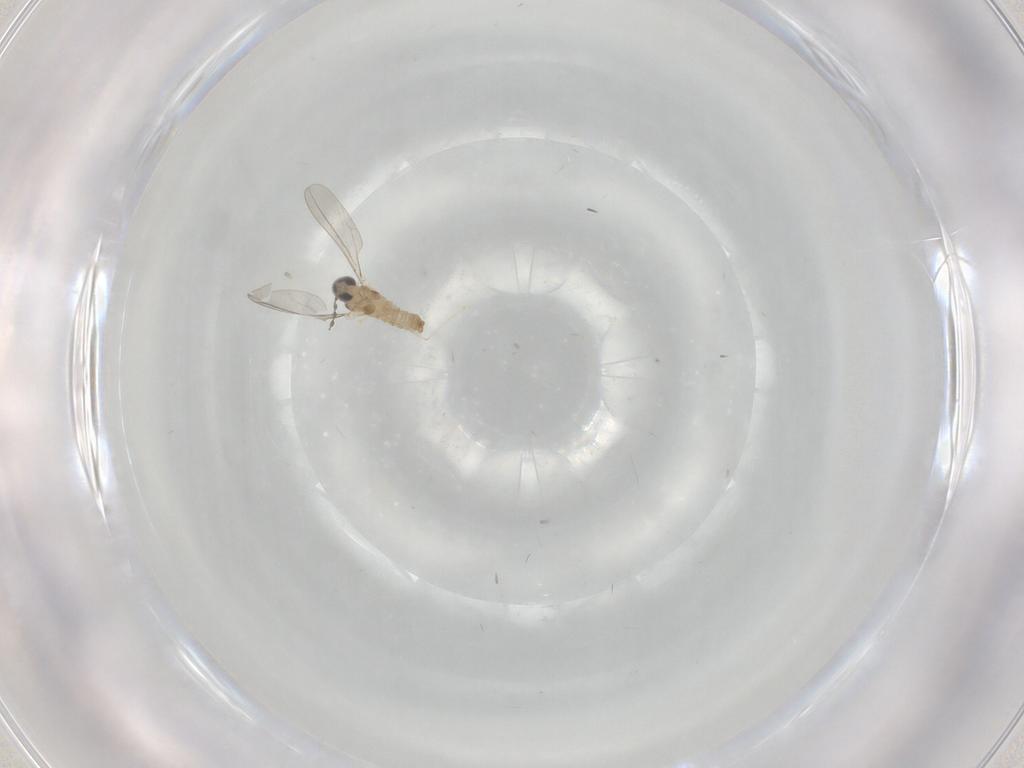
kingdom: Animalia
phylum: Arthropoda
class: Insecta
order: Diptera
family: Cecidomyiidae
